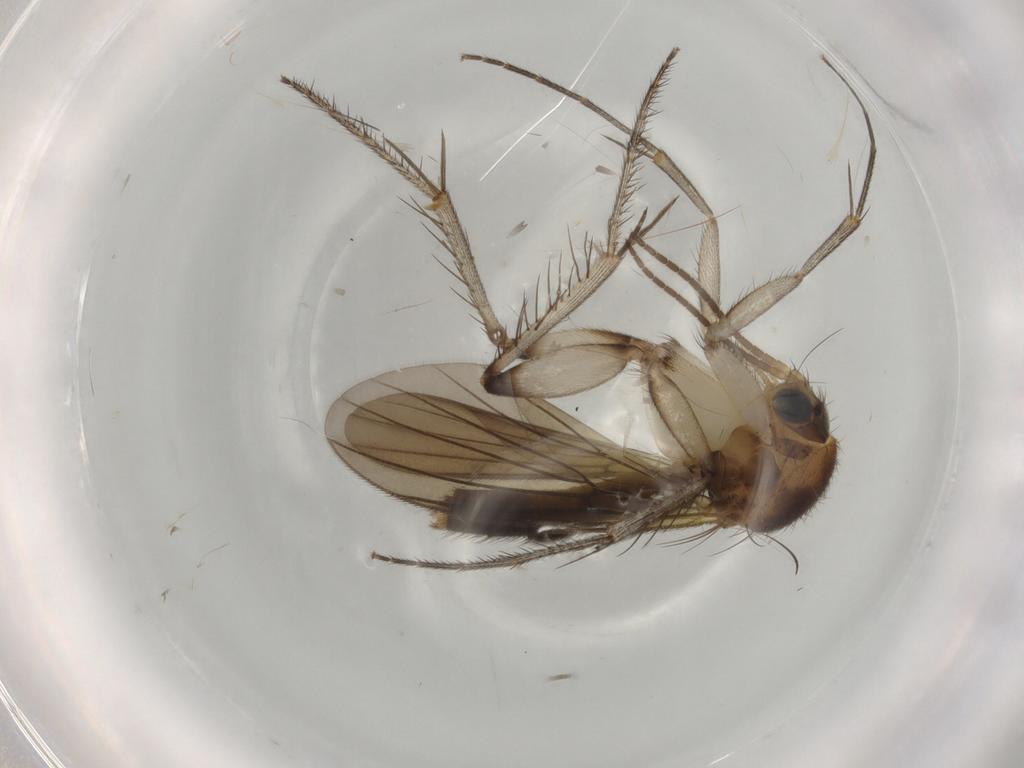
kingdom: Animalia
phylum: Arthropoda
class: Insecta
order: Diptera
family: Mycetophilidae
